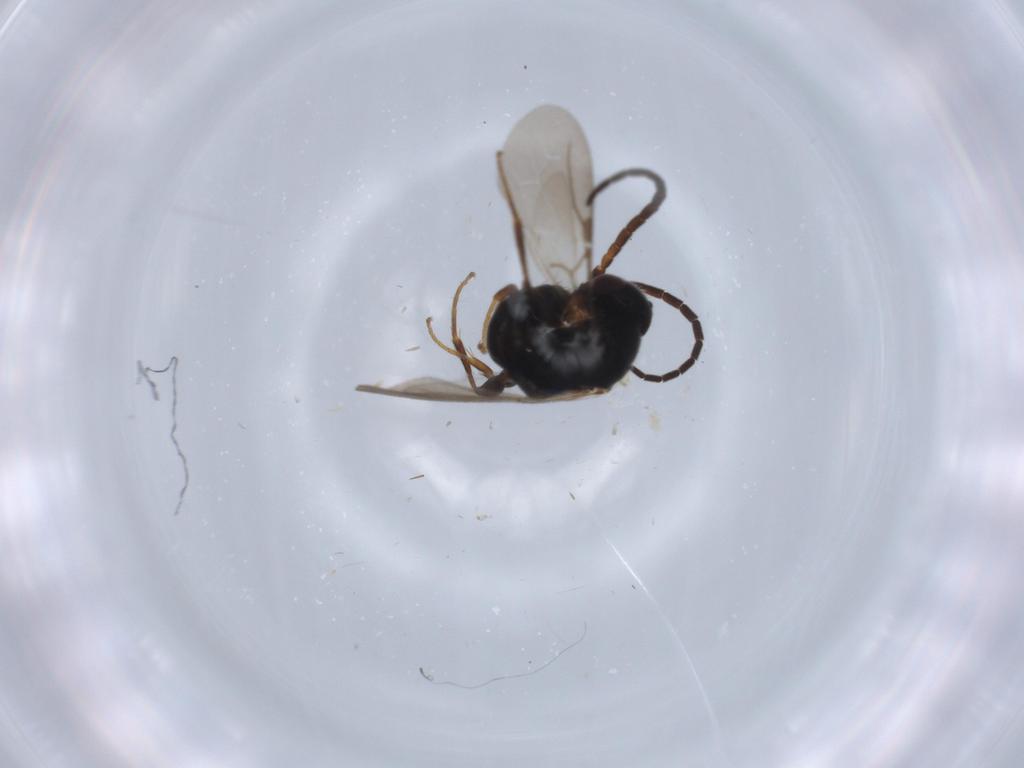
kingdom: Animalia
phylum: Arthropoda
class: Insecta
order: Hymenoptera
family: Bethylidae
